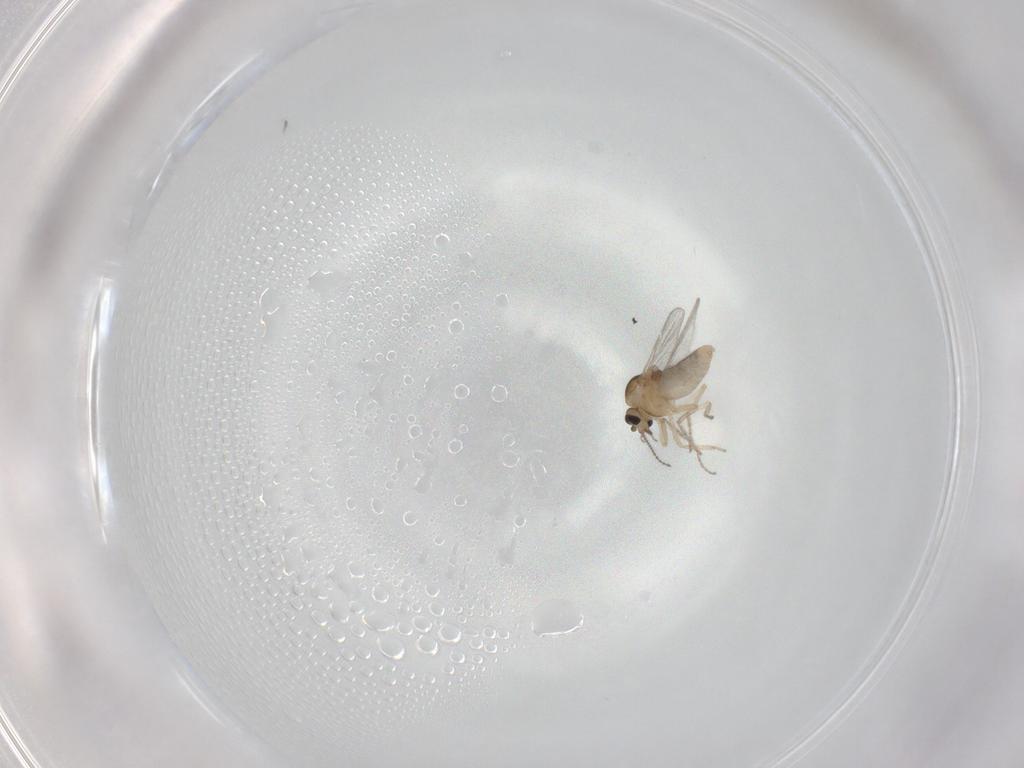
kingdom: Animalia
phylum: Arthropoda
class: Insecta
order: Diptera
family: Ceratopogonidae
